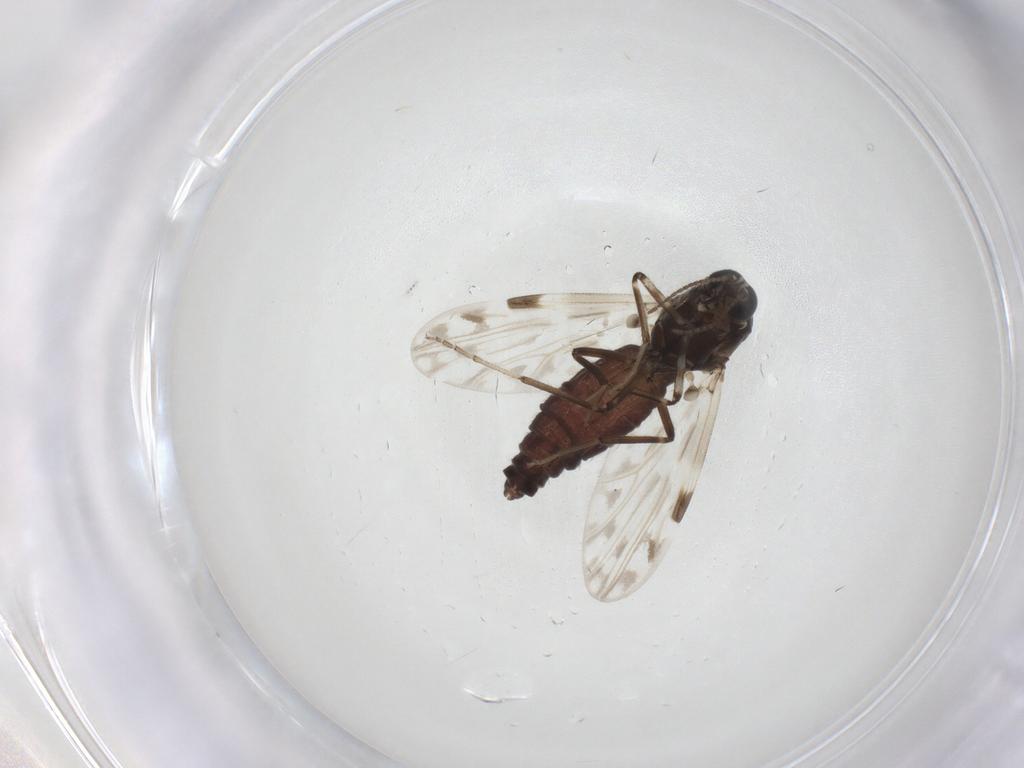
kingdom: Animalia
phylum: Arthropoda
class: Insecta
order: Diptera
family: Ceratopogonidae
